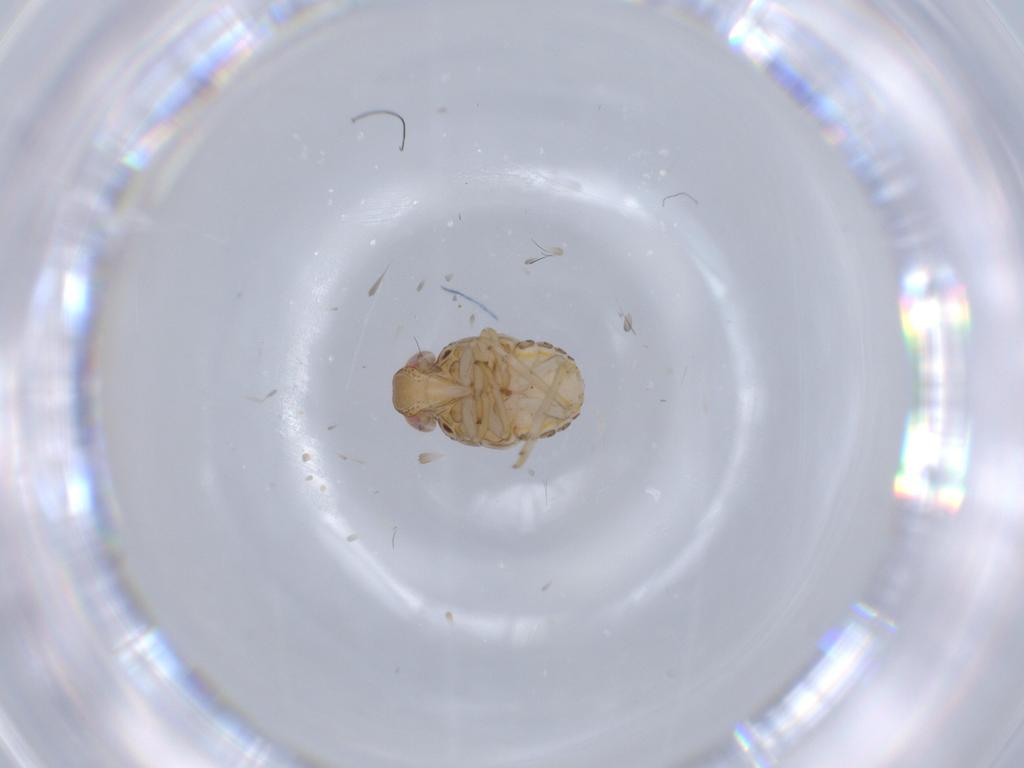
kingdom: Animalia
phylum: Arthropoda
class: Insecta
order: Hemiptera
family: Issidae
